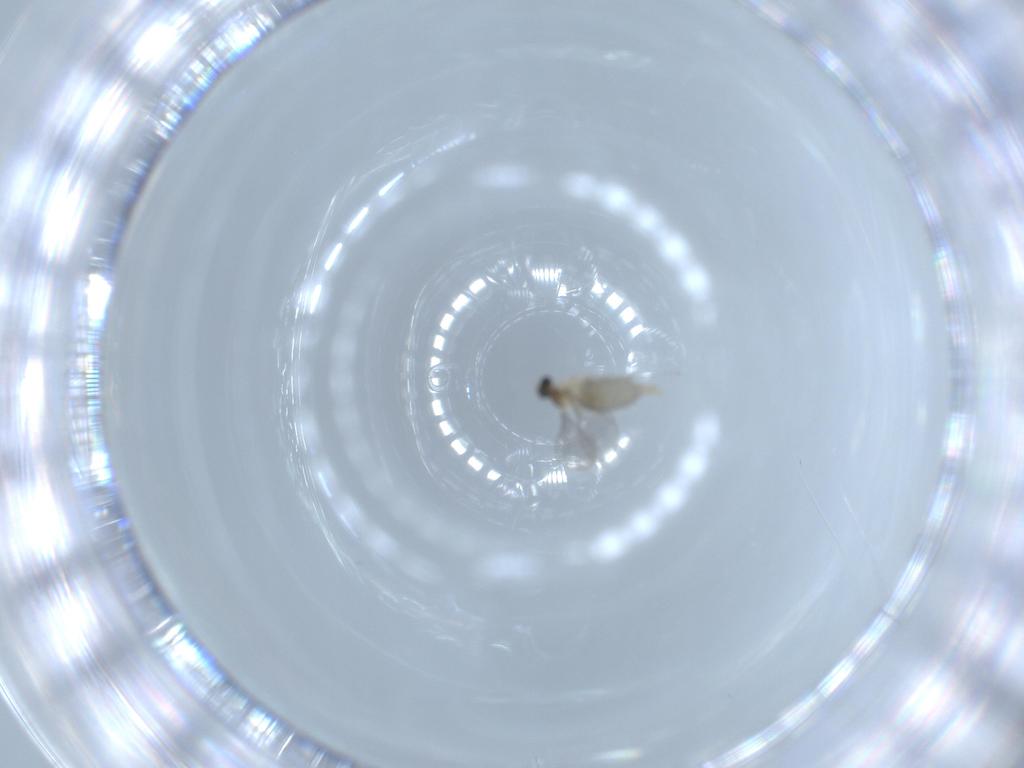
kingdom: Animalia
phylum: Arthropoda
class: Insecta
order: Diptera
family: Cecidomyiidae
